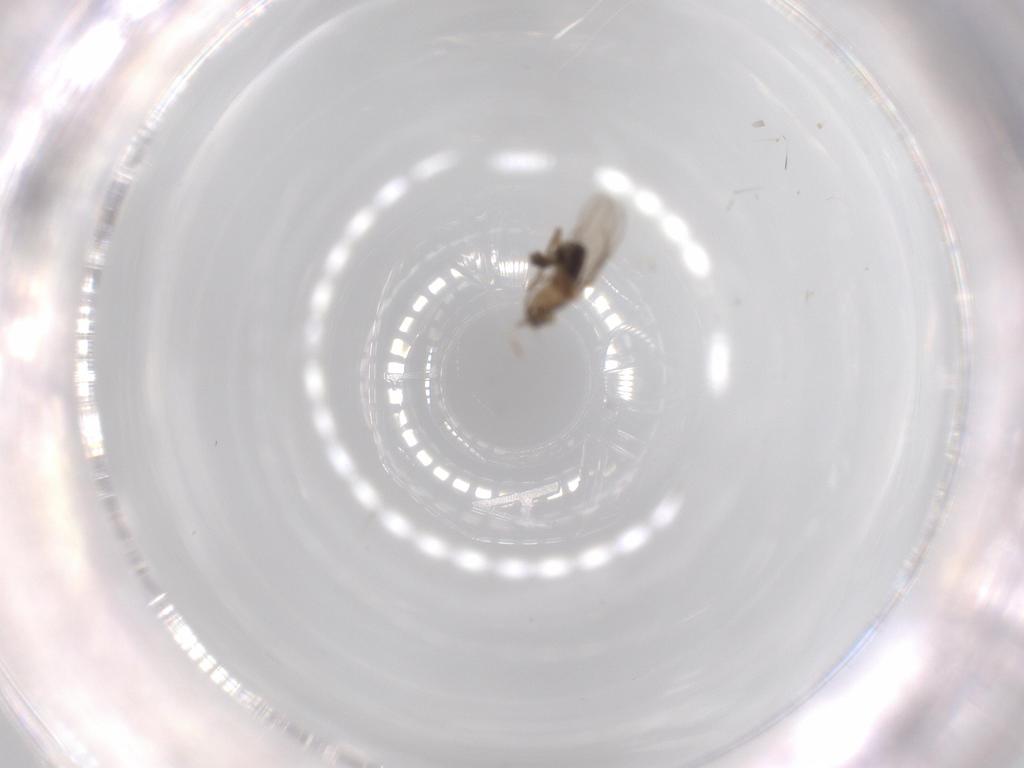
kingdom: Animalia
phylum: Arthropoda
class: Insecta
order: Diptera
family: Phoridae
